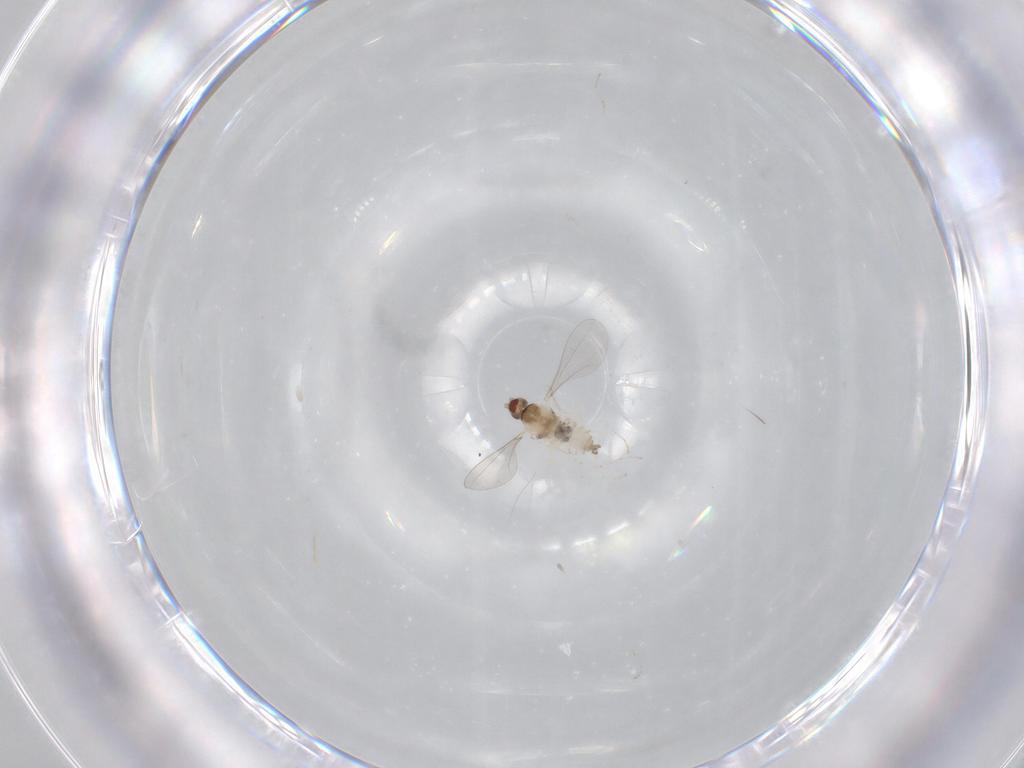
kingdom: Animalia
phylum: Arthropoda
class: Insecta
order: Diptera
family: Cecidomyiidae
